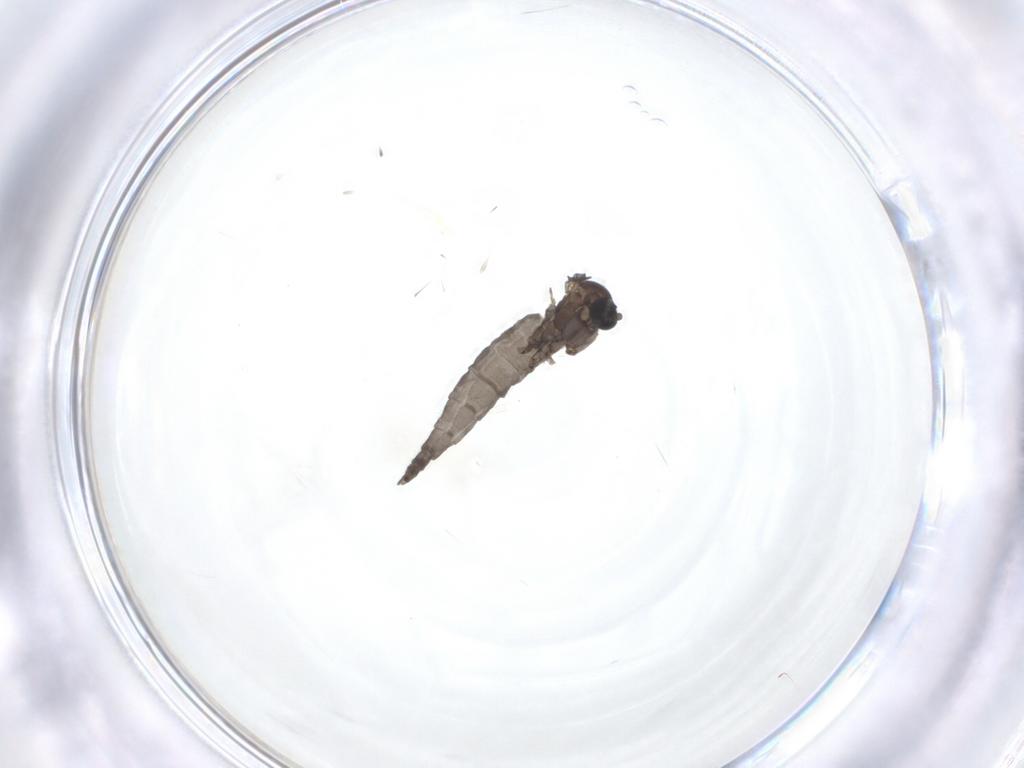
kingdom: Animalia
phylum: Arthropoda
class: Insecta
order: Diptera
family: Sciaridae
